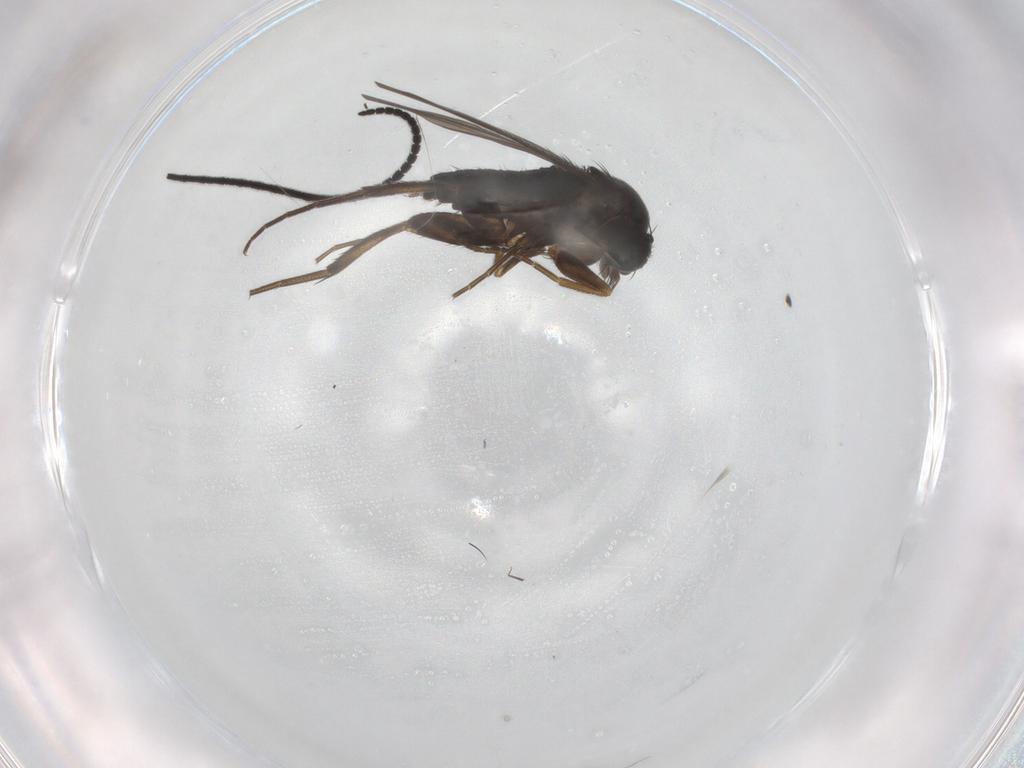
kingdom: Animalia
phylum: Arthropoda
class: Insecta
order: Diptera
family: Phoridae
